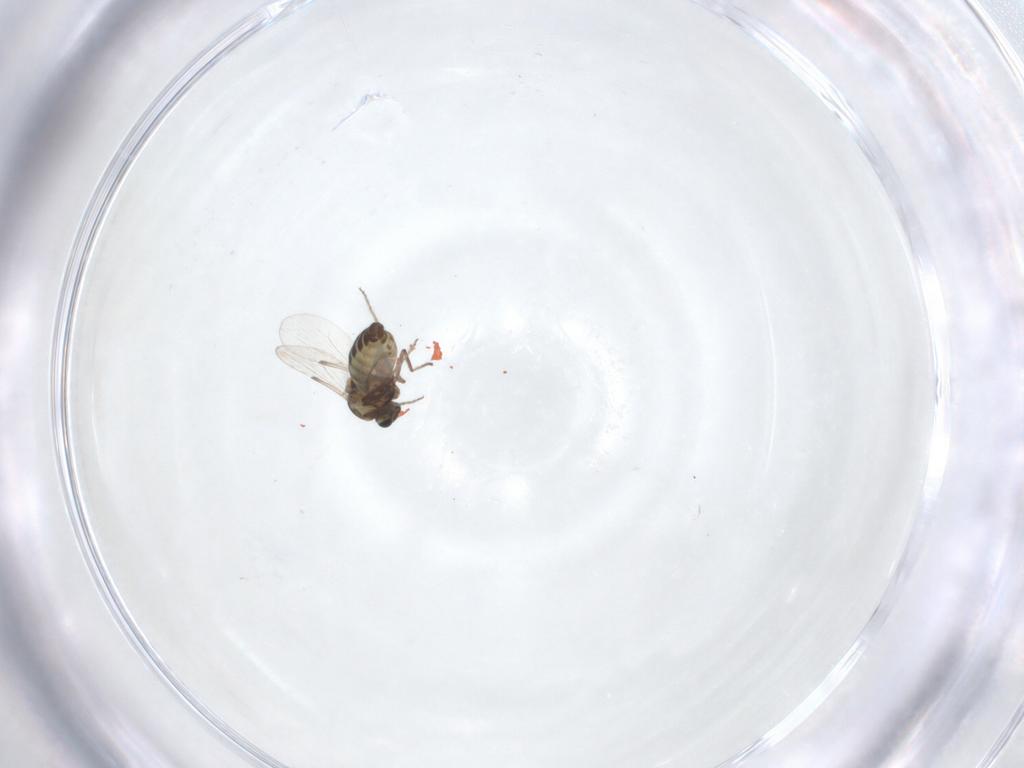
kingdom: Animalia
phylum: Arthropoda
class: Insecta
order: Diptera
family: Ceratopogonidae
